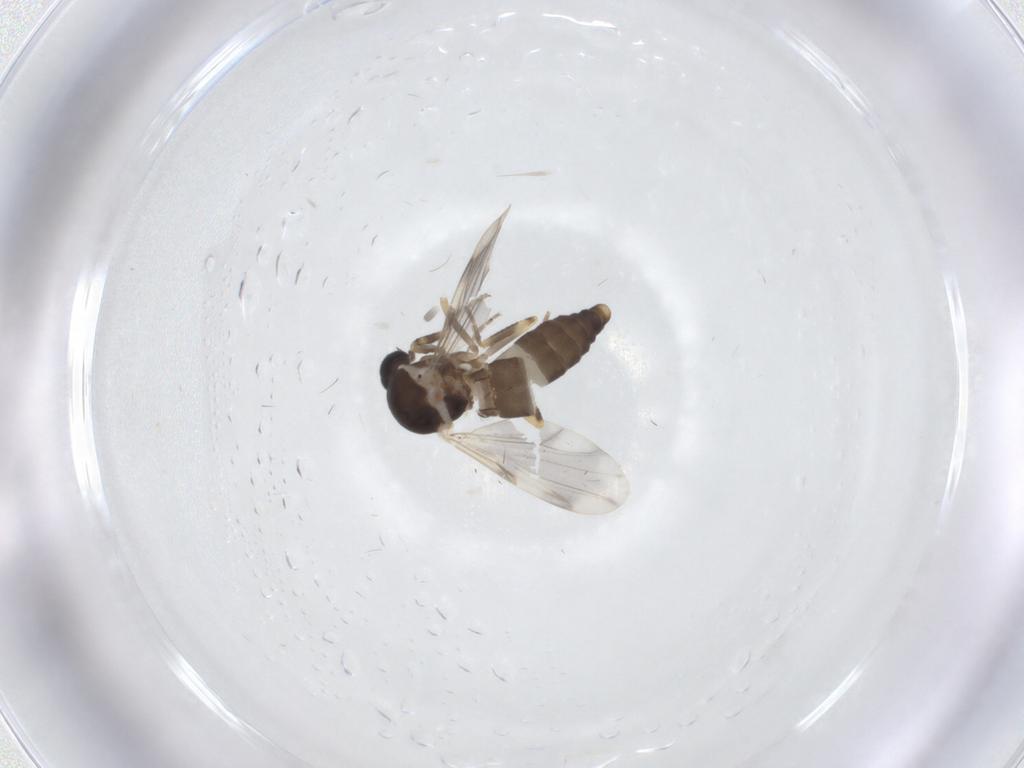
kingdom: Animalia
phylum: Arthropoda
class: Insecta
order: Diptera
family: Ceratopogonidae
